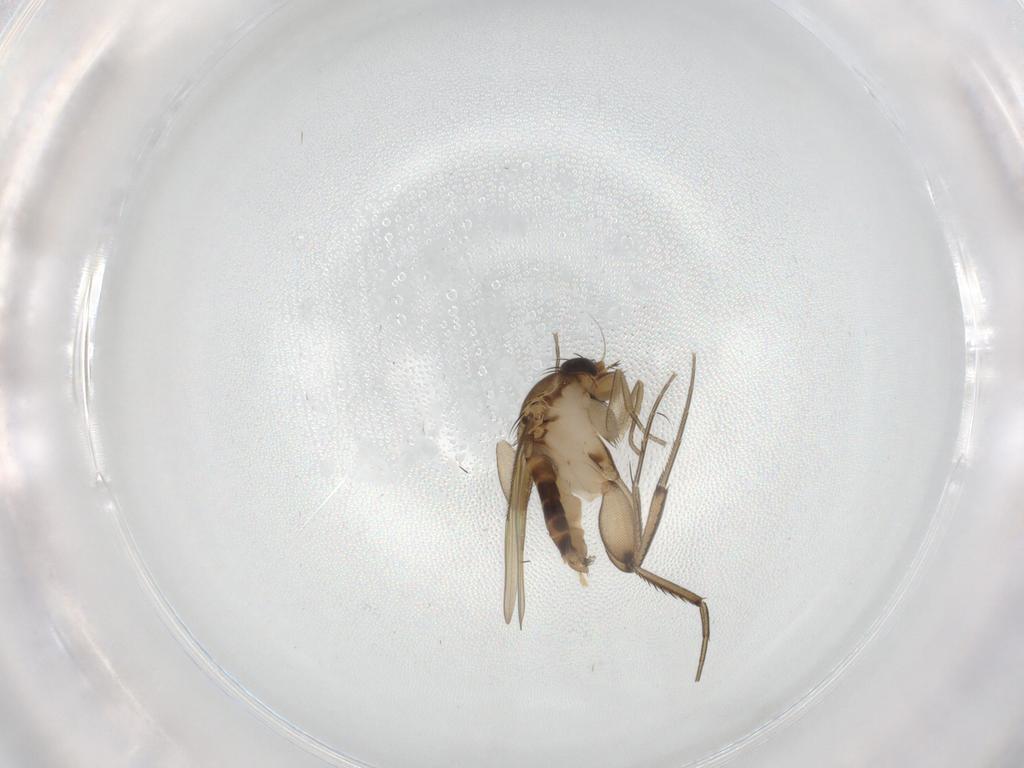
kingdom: Animalia
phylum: Arthropoda
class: Insecta
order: Diptera
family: Phoridae
